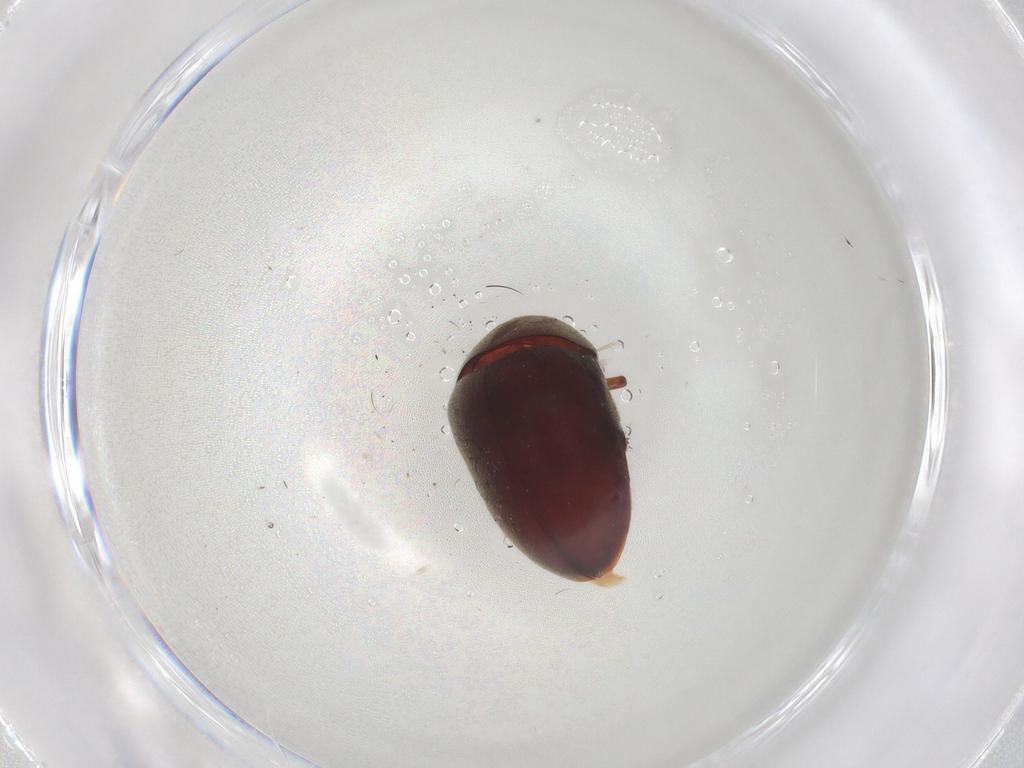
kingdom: Animalia
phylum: Arthropoda
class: Insecta
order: Coleoptera
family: Ptinidae
